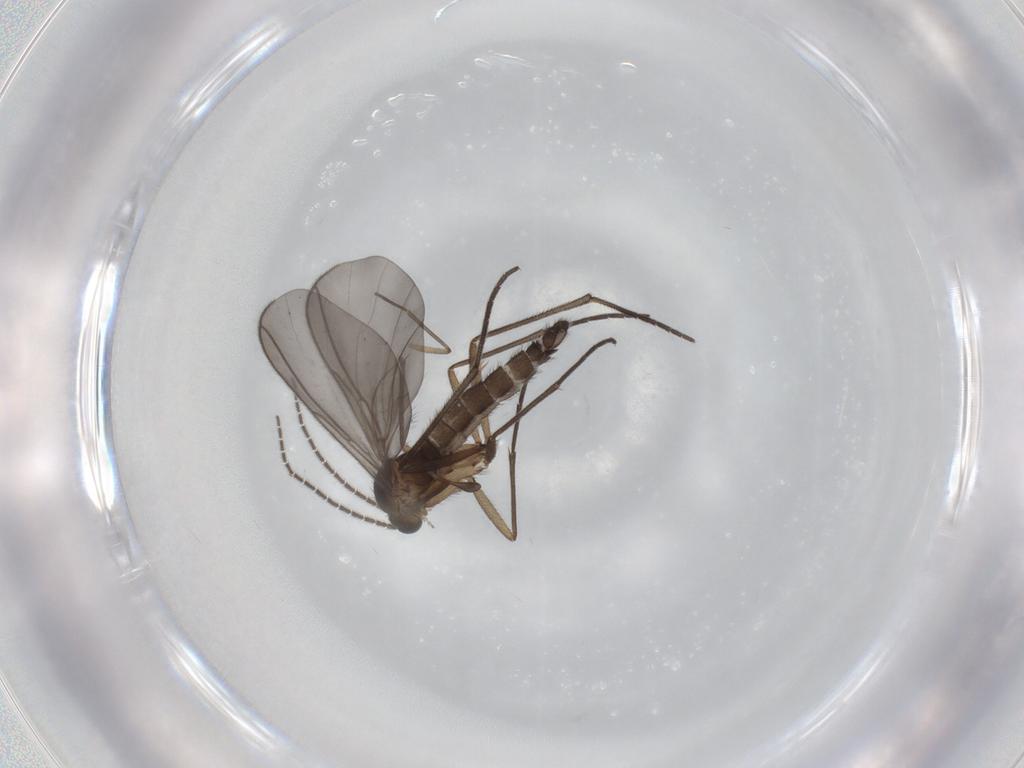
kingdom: Animalia
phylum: Arthropoda
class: Insecta
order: Diptera
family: Sciaridae
